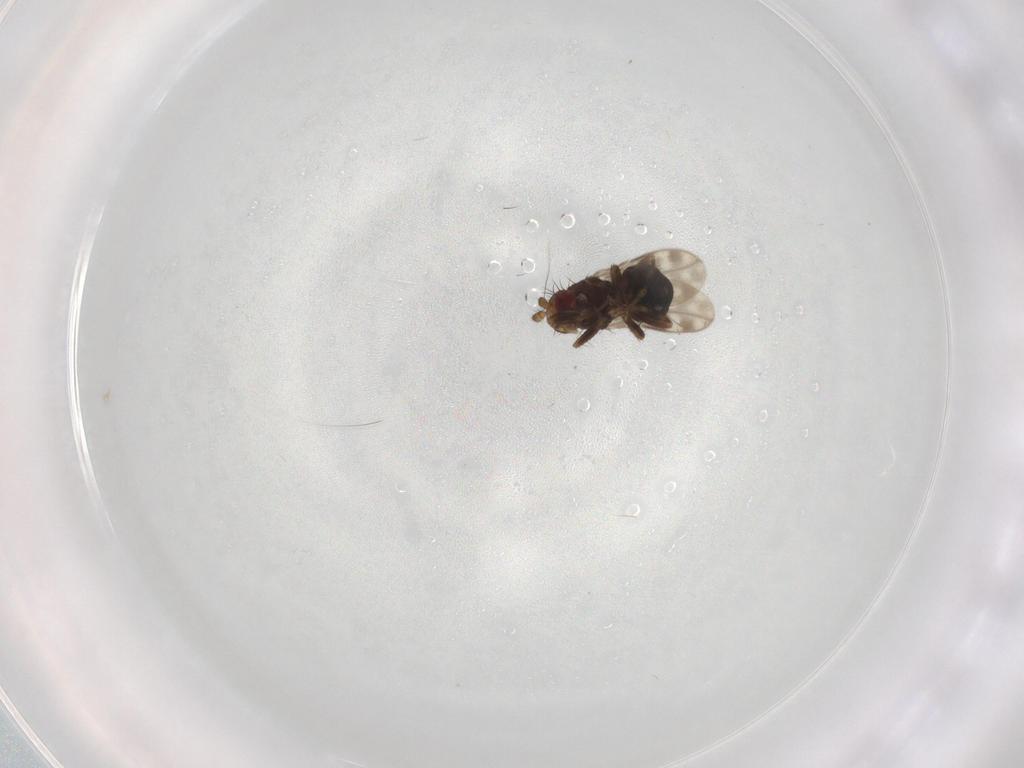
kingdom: Animalia
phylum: Arthropoda
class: Insecta
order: Diptera
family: Sphaeroceridae
